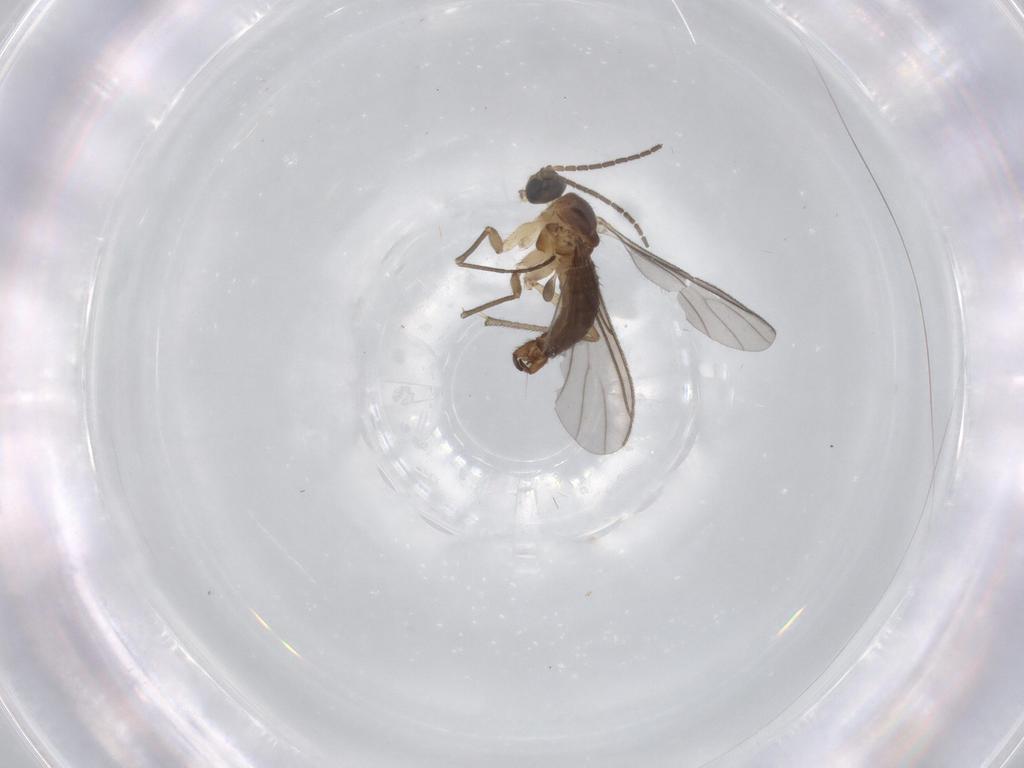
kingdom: Animalia
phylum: Arthropoda
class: Insecta
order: Diptera
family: Sciaridae
